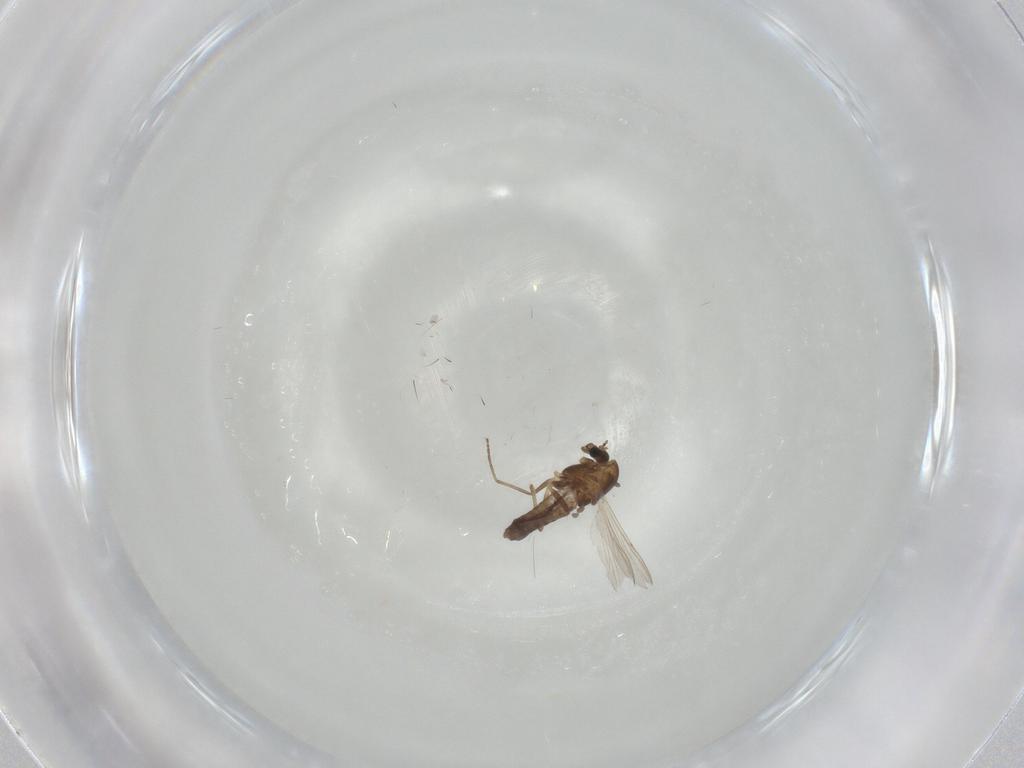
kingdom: Animalia
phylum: Arthropoda
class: Insecta
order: Diptera
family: Chironomidae
